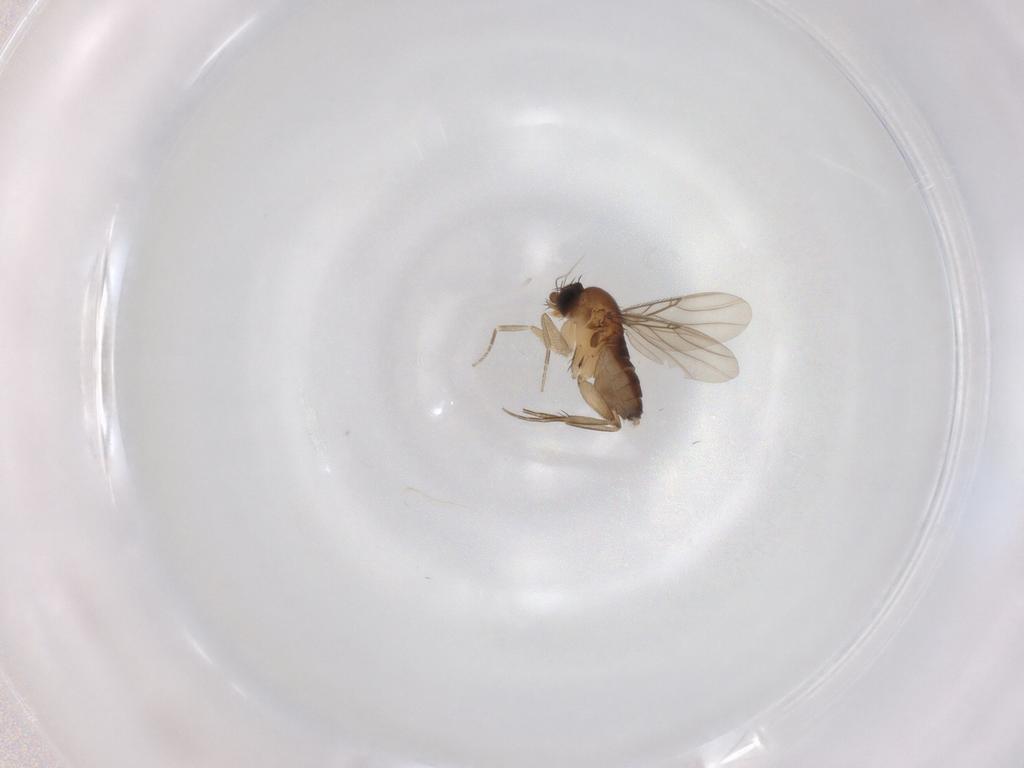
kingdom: Animalia
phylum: Arthropoda
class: Insecta
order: Diptera
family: Phoridae
